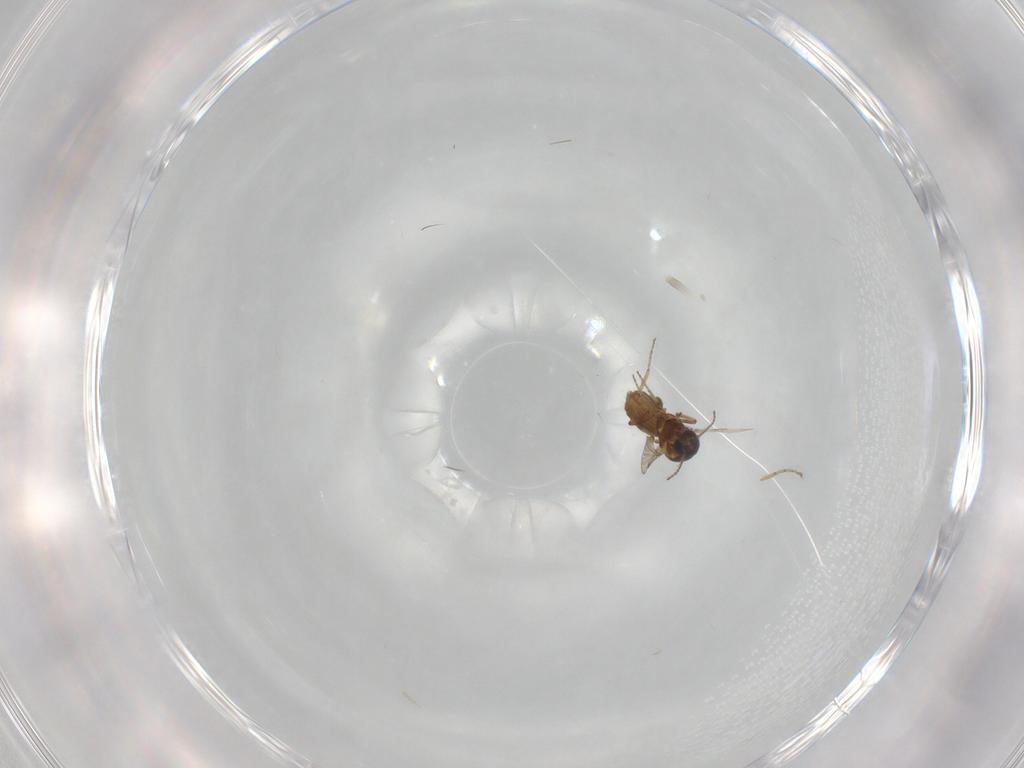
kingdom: Animalia
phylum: Arthropoda
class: Insecta
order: Diptera
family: Ceratopogonidae
